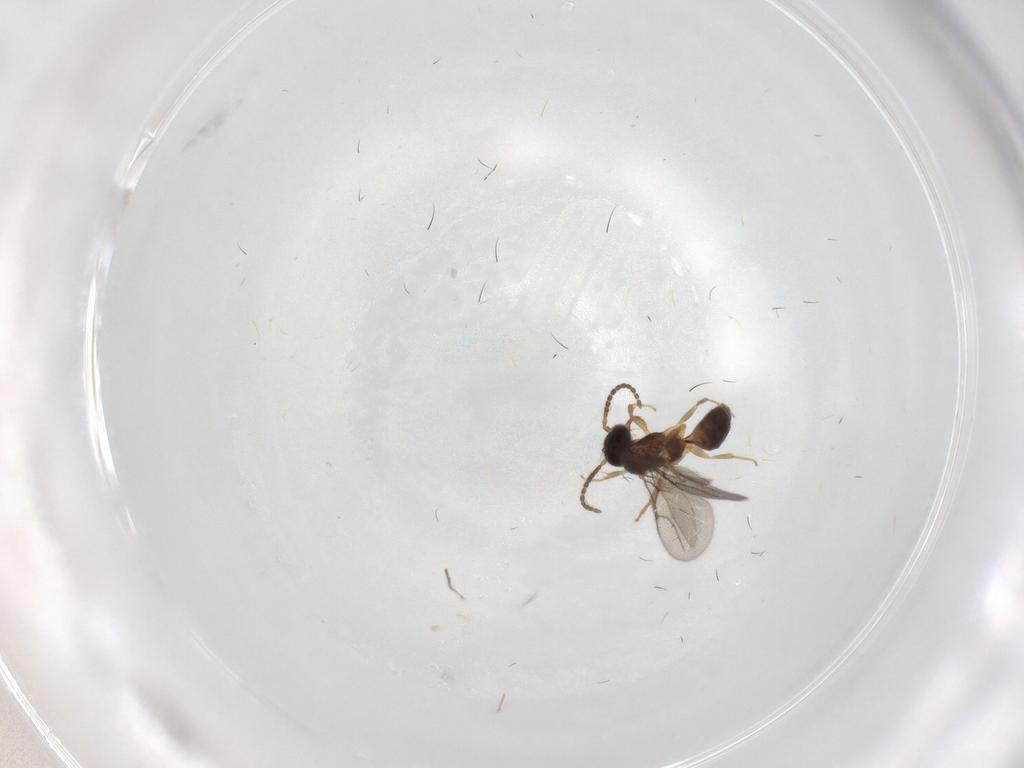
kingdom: Animalia
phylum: Arthropoda
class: Insecta
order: Hymenoptera
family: Bethylidae
